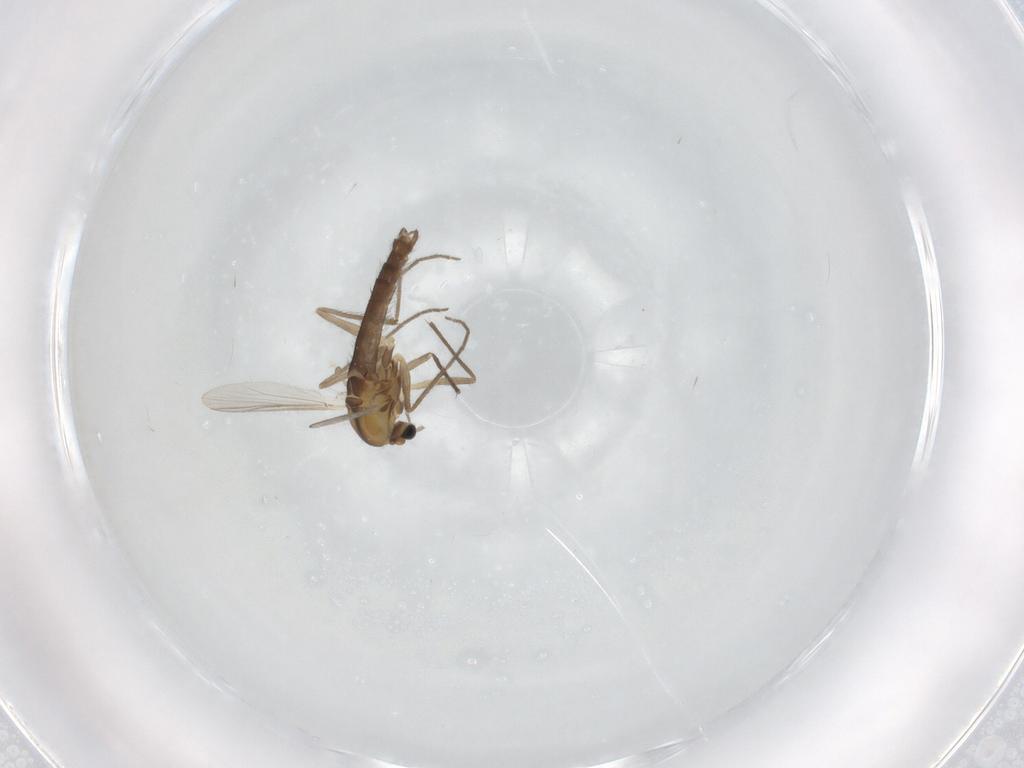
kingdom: Animalia
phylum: Arthropoda
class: Insecta
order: Diptera
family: Chironomidae
